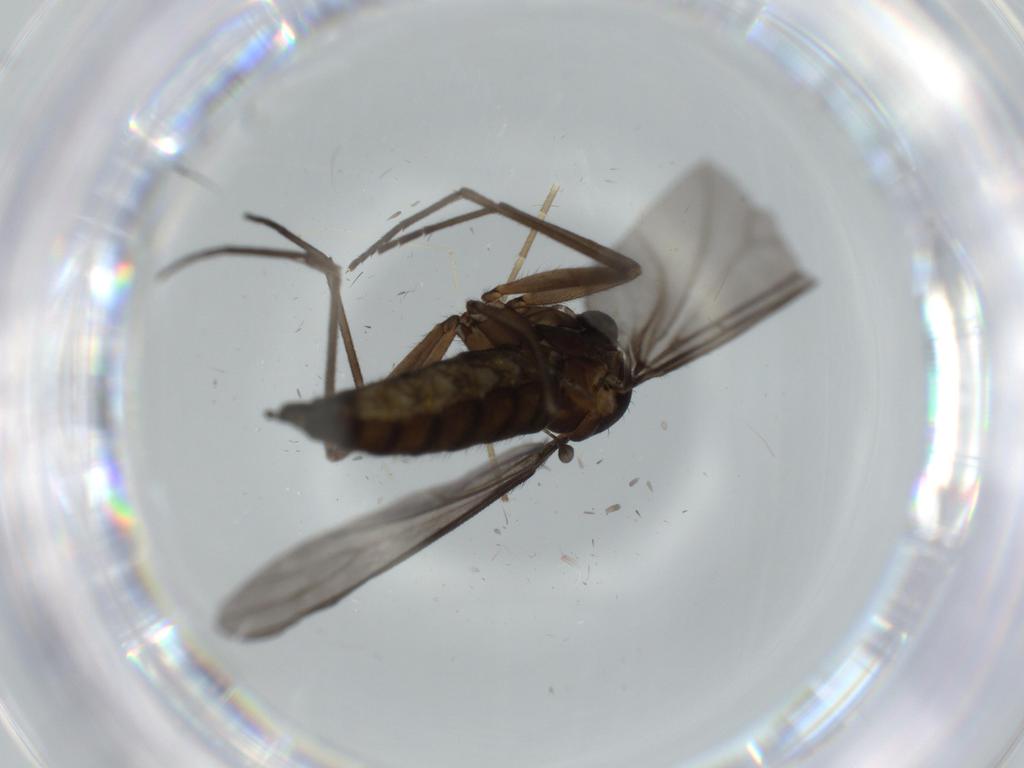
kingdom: Animalia
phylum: Arthropoda
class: Insecta
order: Diptera
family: Sciaridae
